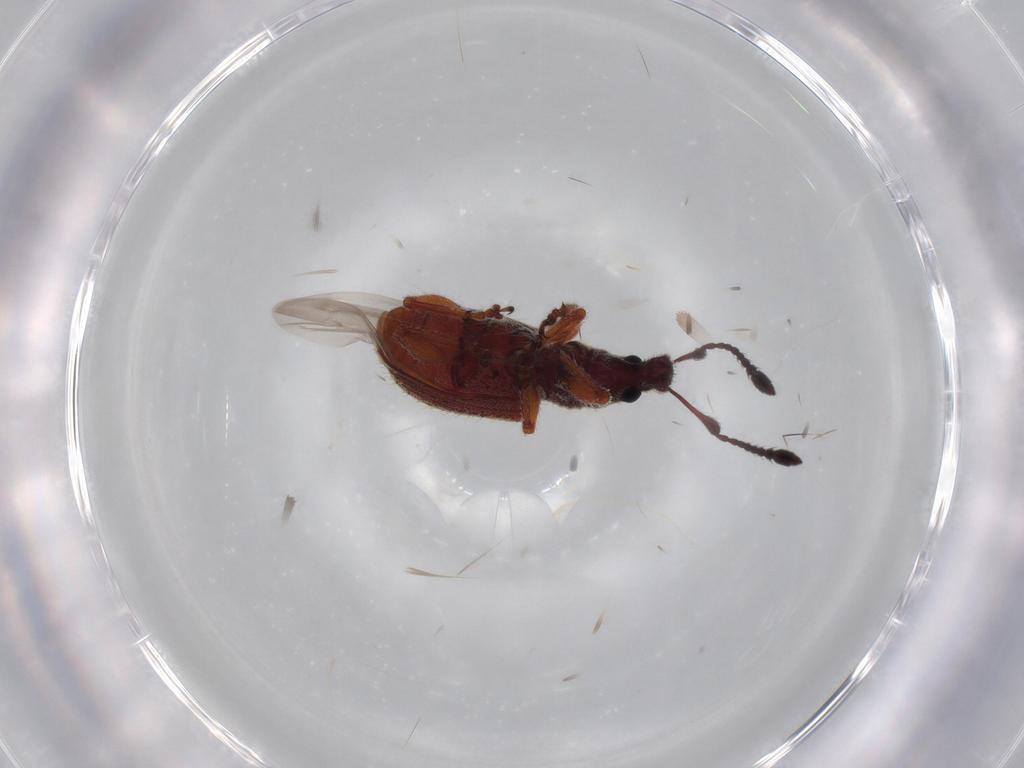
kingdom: Animalia
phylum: Arthropoda
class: Insecta
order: Coleoptera
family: Curculionidae
